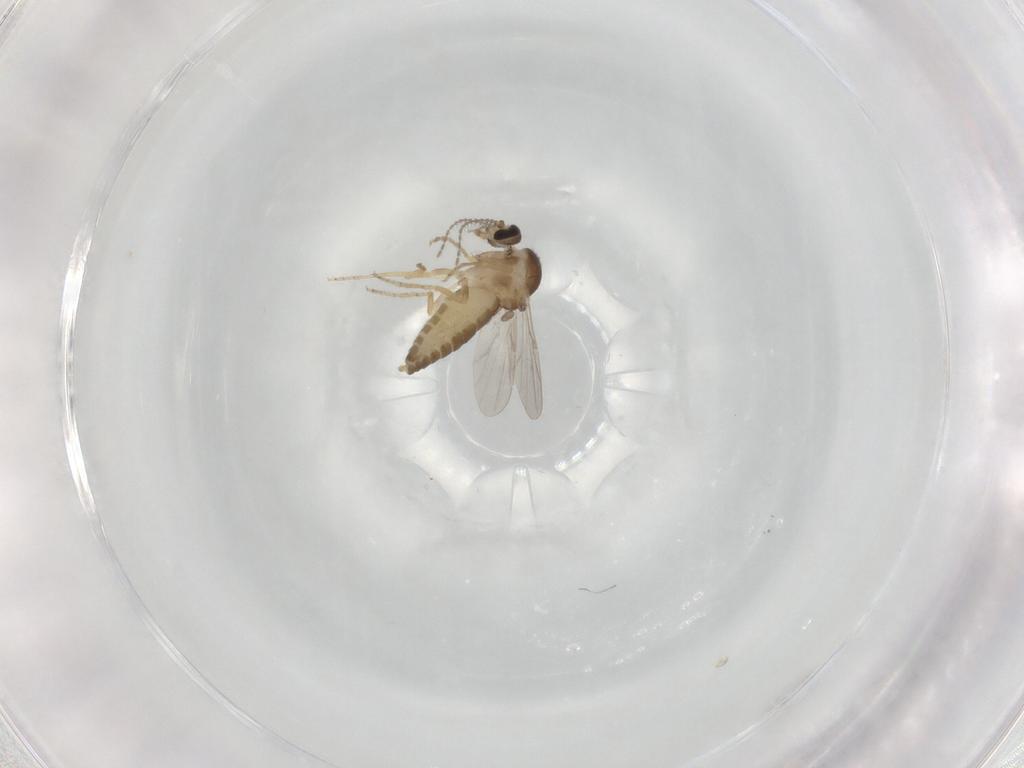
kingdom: Animalia
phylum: Arthropoda
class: Insecta
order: Diptera
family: Ceratopogonidae
